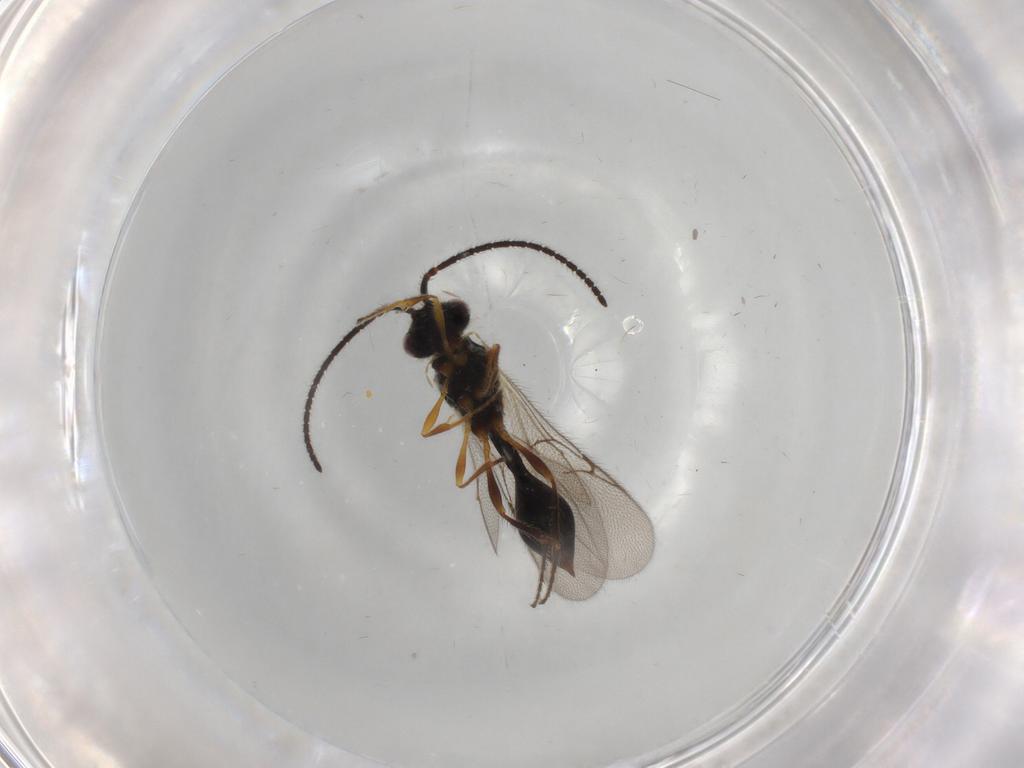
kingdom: Animalia
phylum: Arthropoda
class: Insecta
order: Hymenoptera
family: Diapriidae
